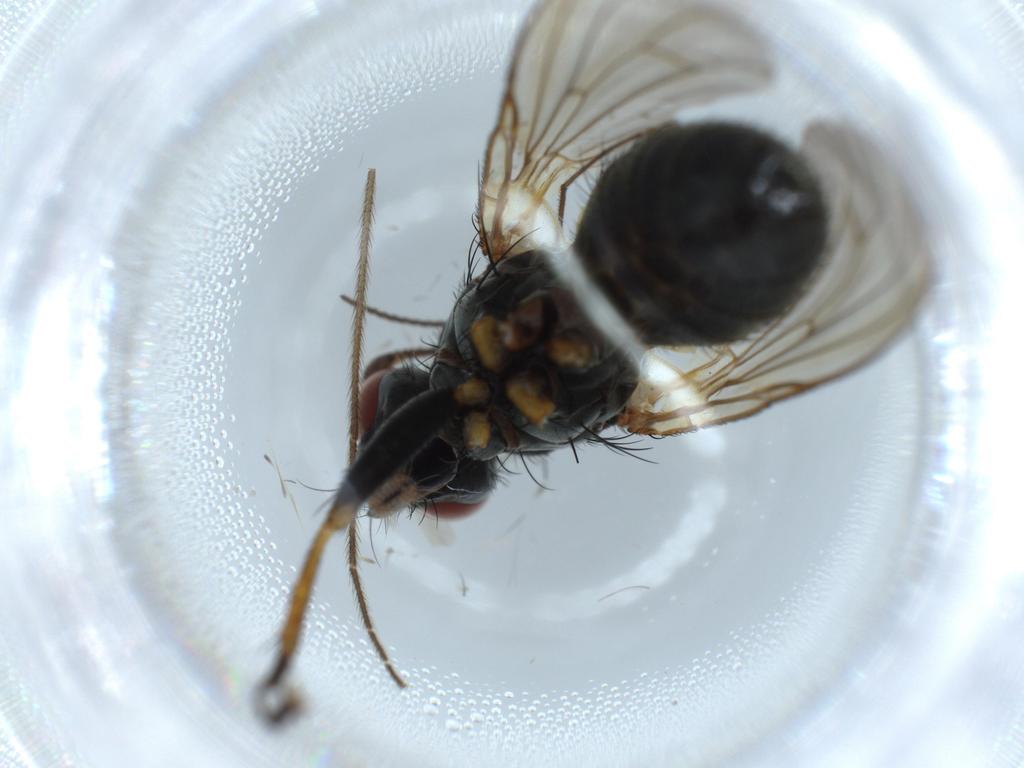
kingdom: Animalia
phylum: Arthropoda
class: Insecta
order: Diptera
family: Muscidae
